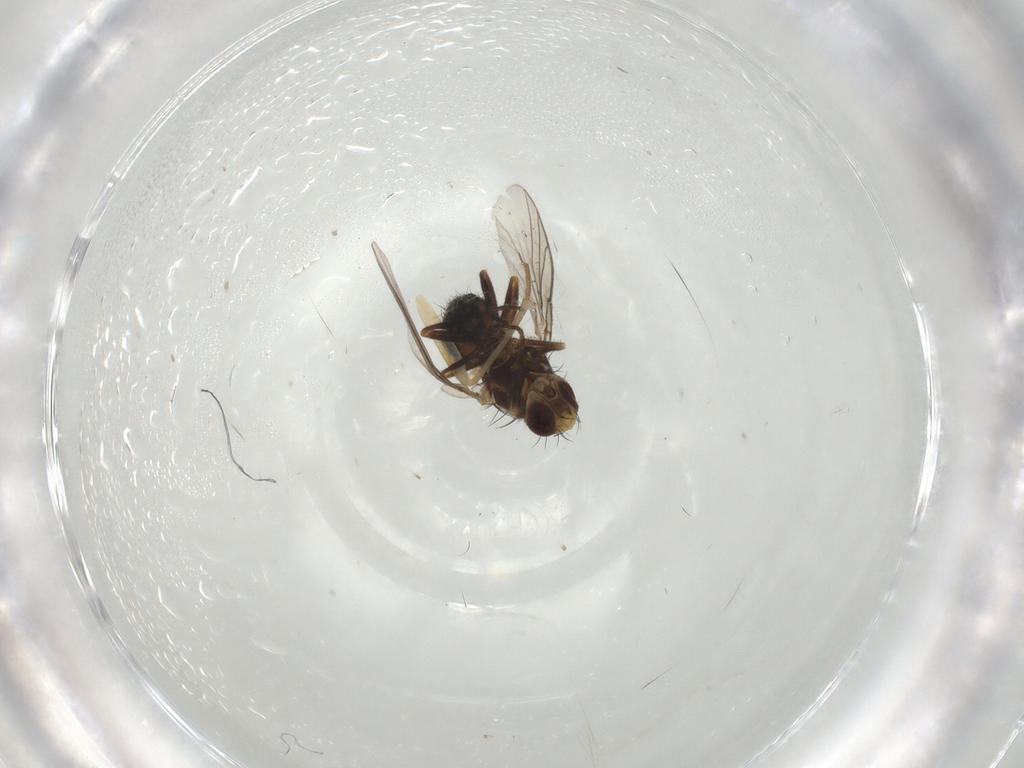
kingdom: Animalia
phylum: Arthropoda
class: Insecta
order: Diptera
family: Agromyzidae
